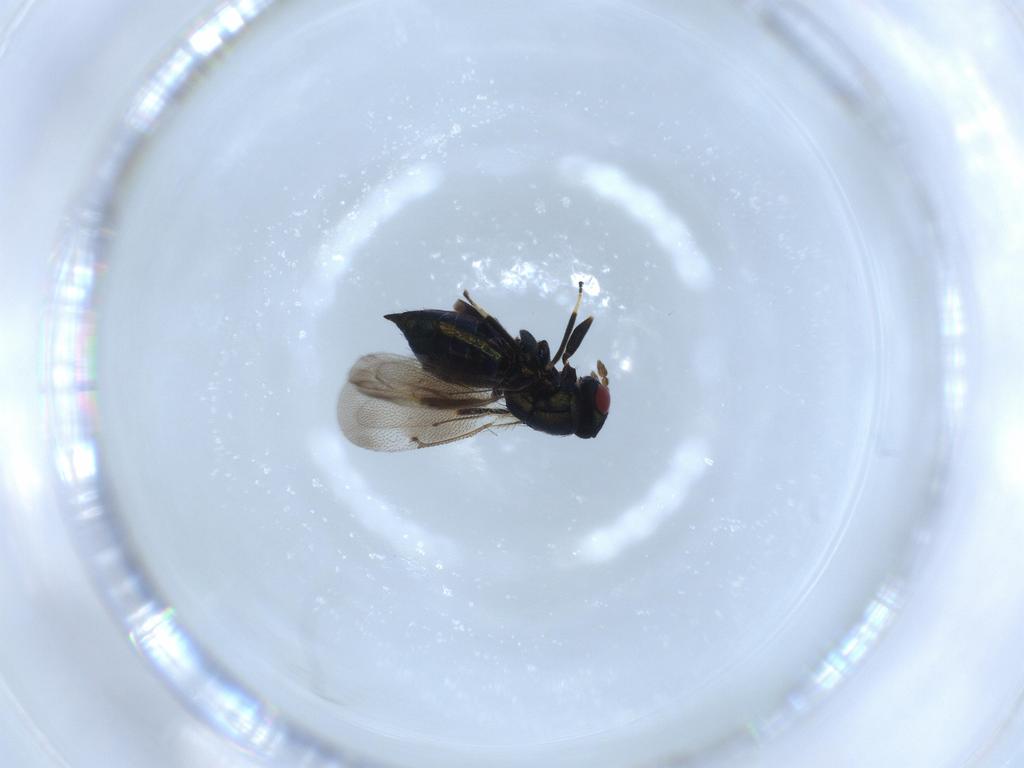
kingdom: Animalia
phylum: Arthropoda
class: Insecta
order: Hymenoptera
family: Eulophidae
